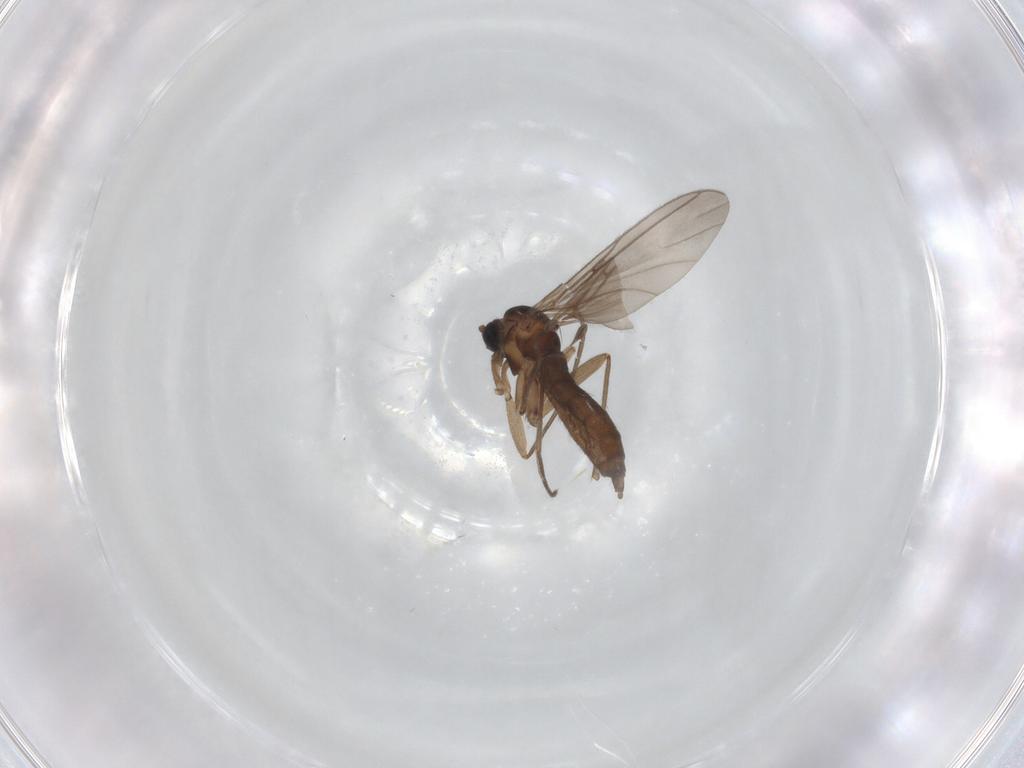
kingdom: Animalia
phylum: Arthropoda
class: Insecta
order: Diptera
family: Sciaridae
